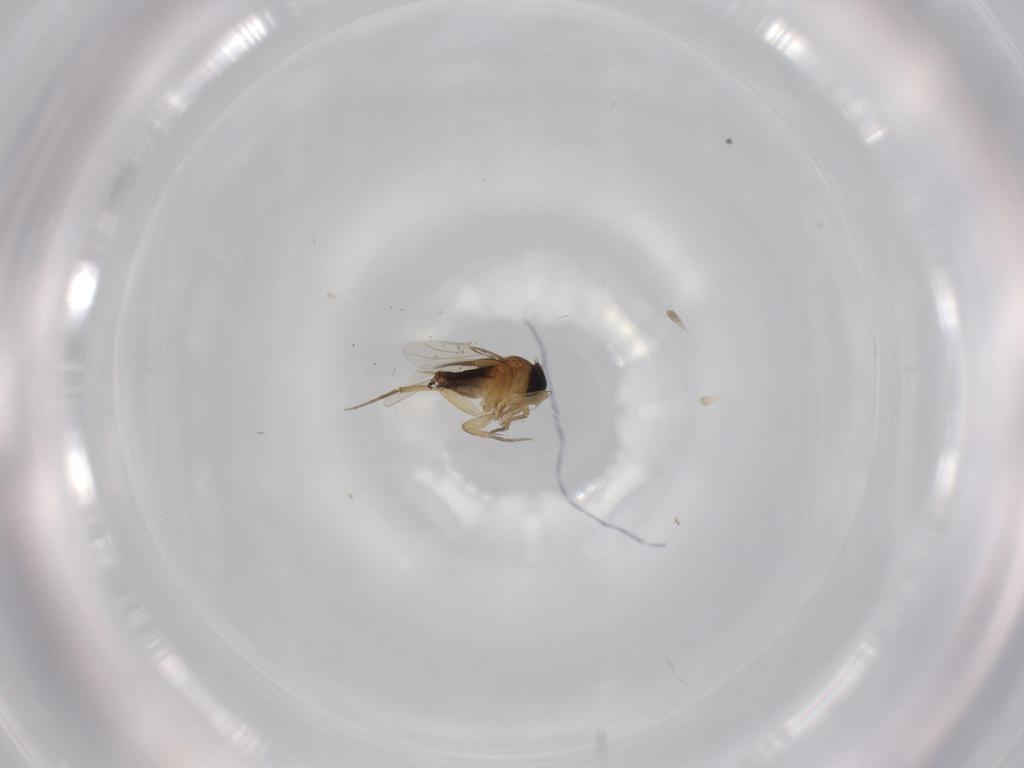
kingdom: Animalia
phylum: Arthropoda
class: Insecta
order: Diptera
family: Phoridae
